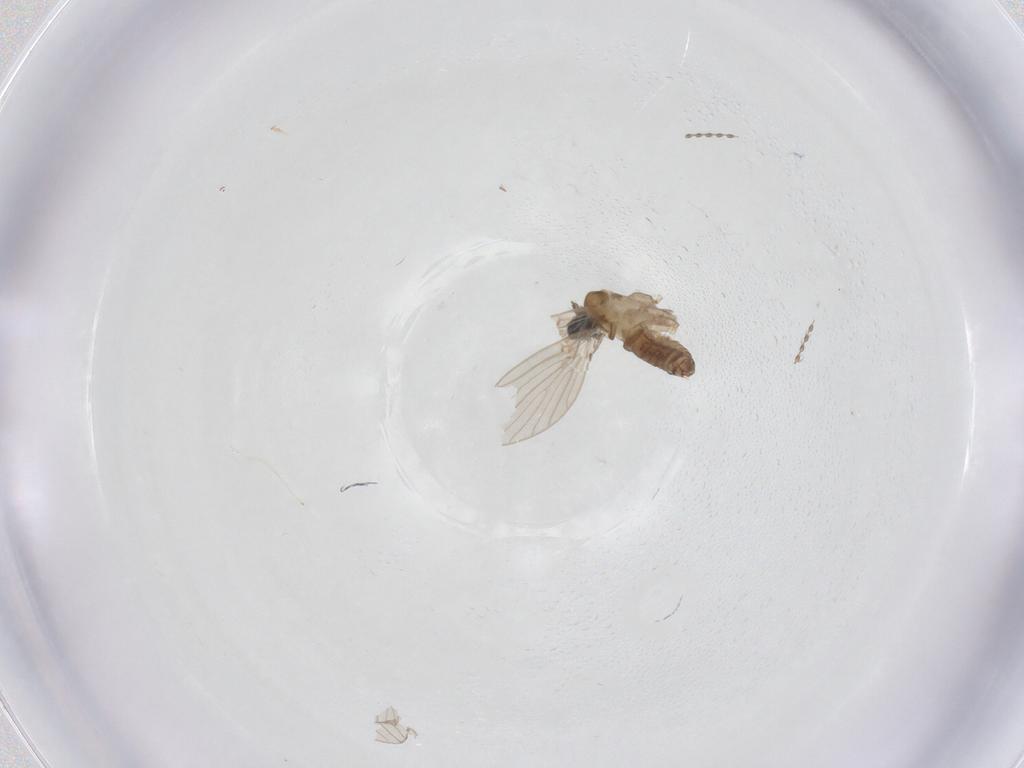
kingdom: Animalia
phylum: Arthropoda
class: Insecta
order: Diptera
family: Psychodidae
